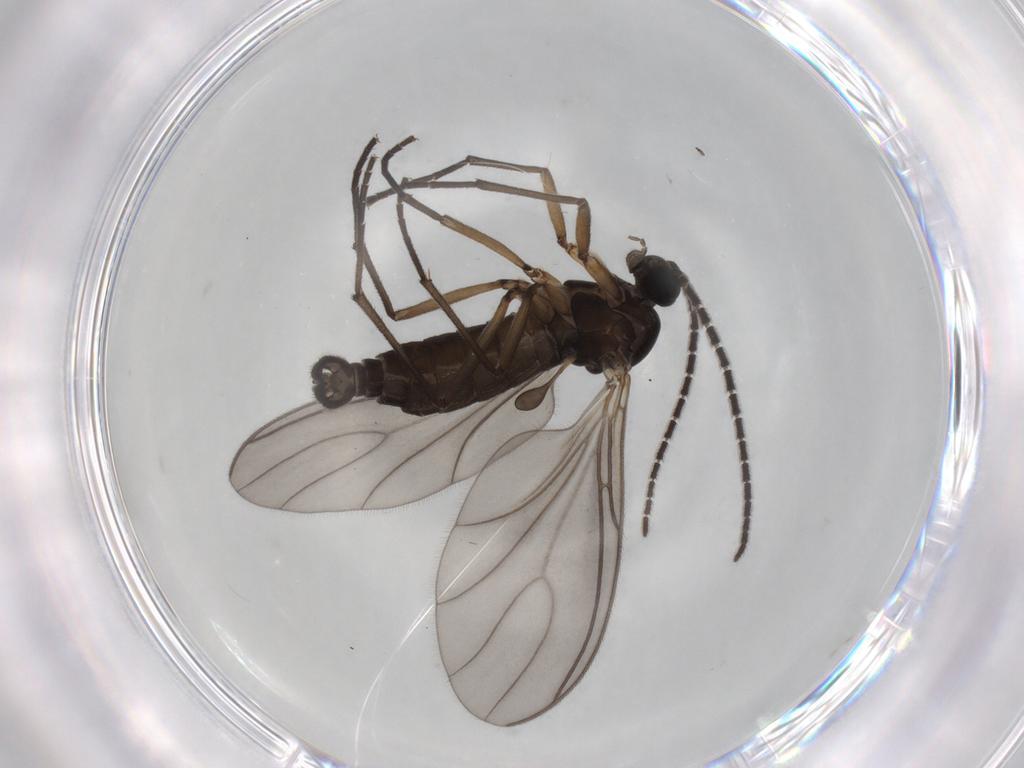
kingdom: Animalia
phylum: Arthropoda
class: Insecta
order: Diptera
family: Sciaridae
